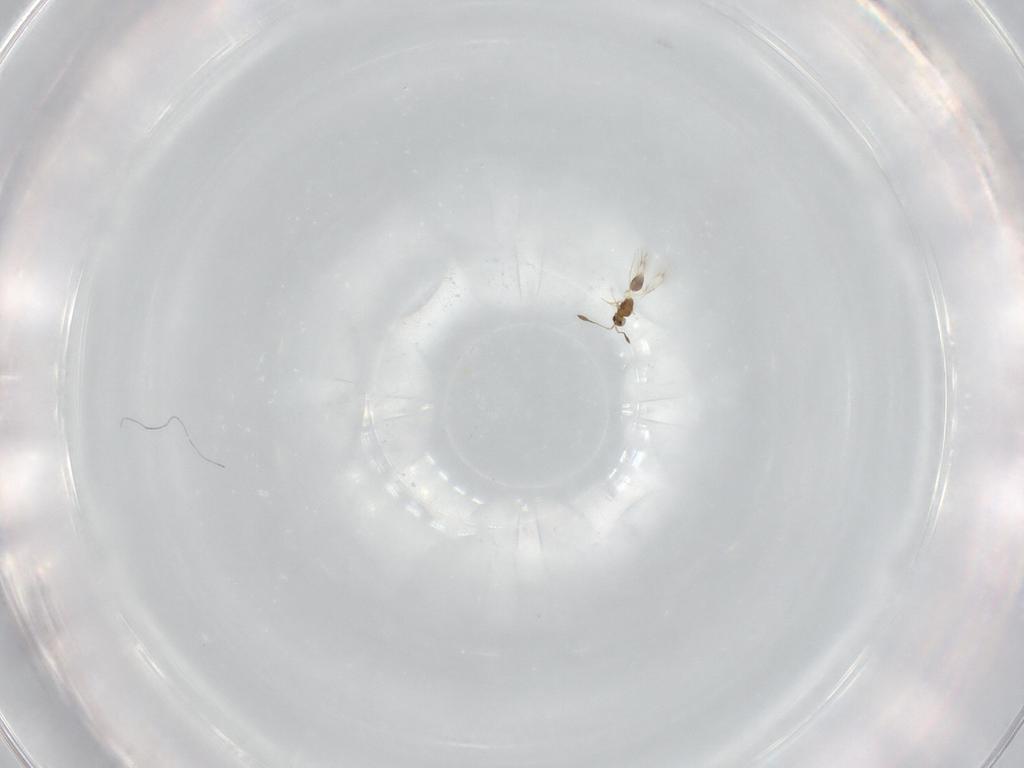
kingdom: Animalia
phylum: Arthropoda
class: Insecta
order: Hymenoptera
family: Mymarommatidae
